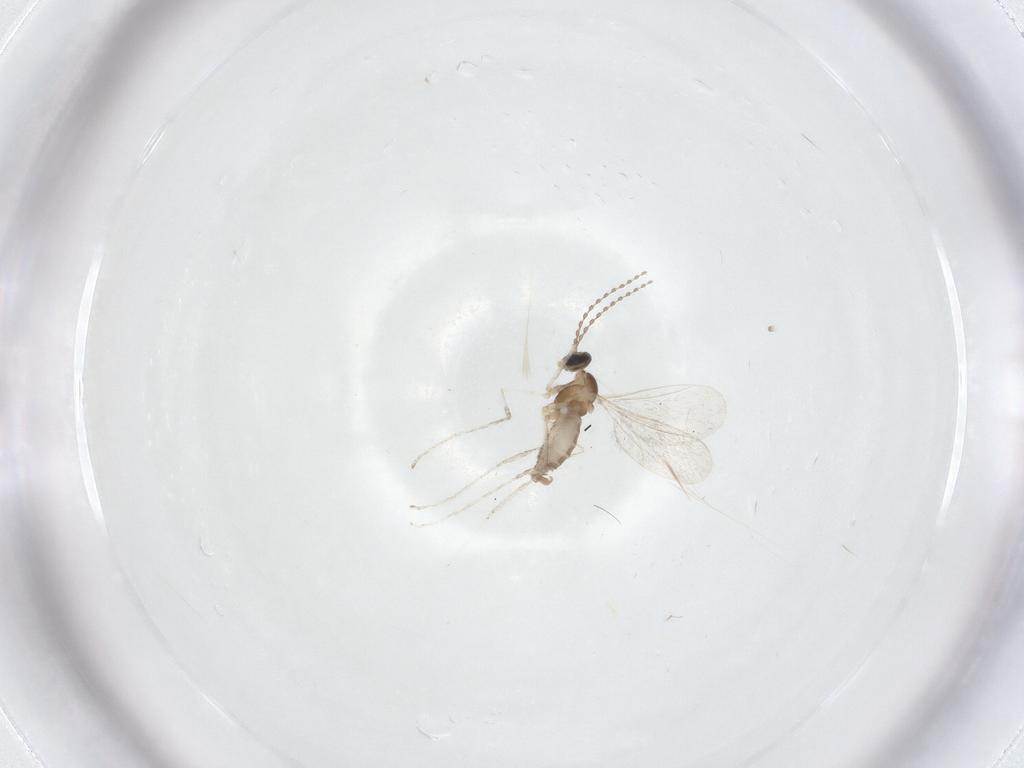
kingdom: Animalia
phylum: Arthropoda
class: Insecta
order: Diptera
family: Cecidomyiidae
